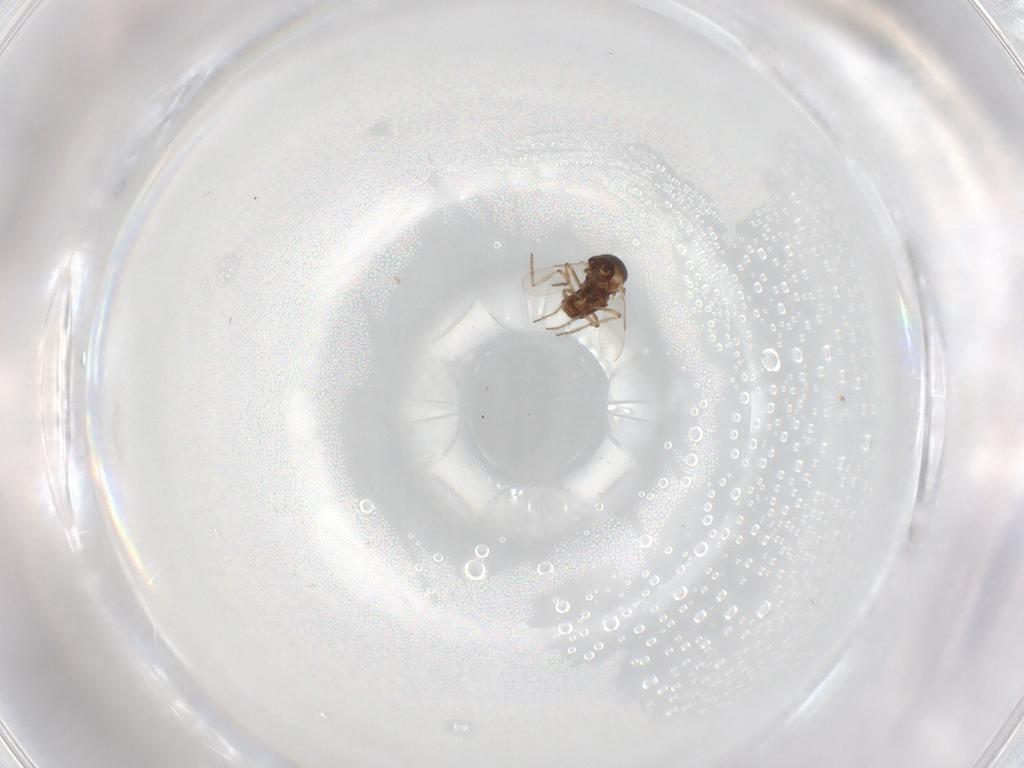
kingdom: Animalia
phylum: Arthropoda
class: Insecta
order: Diptera
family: Ceratopogonidae
